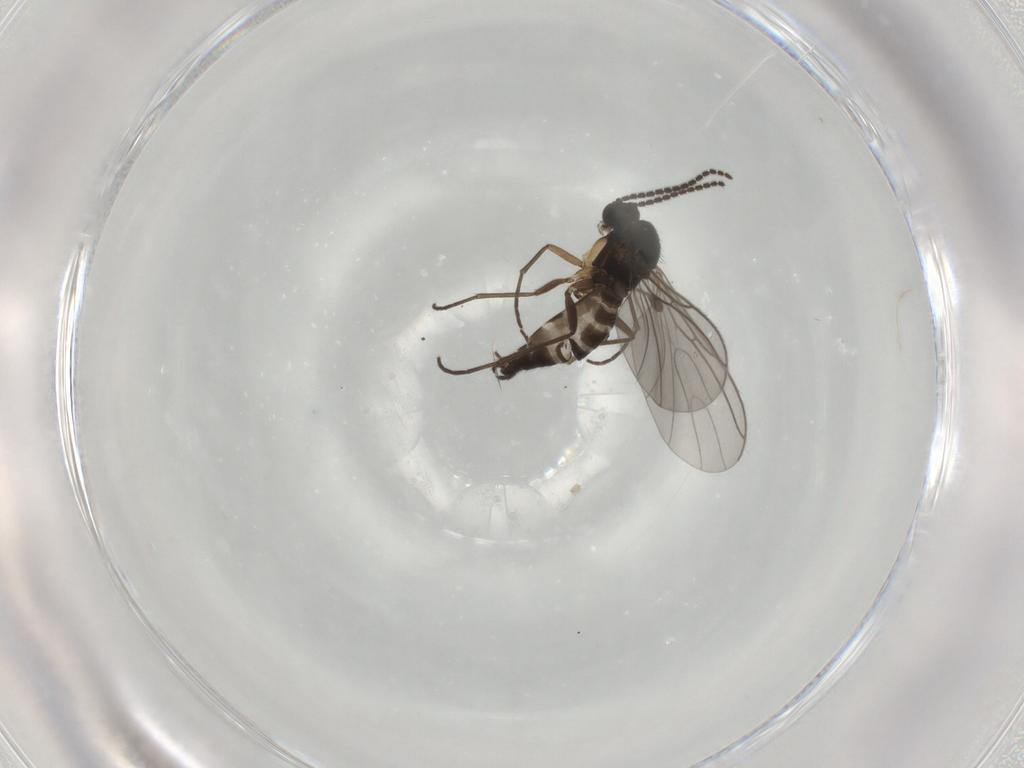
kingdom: Animalia
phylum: Arthropoda
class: Insecta
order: Diptera
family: Sciaridae
